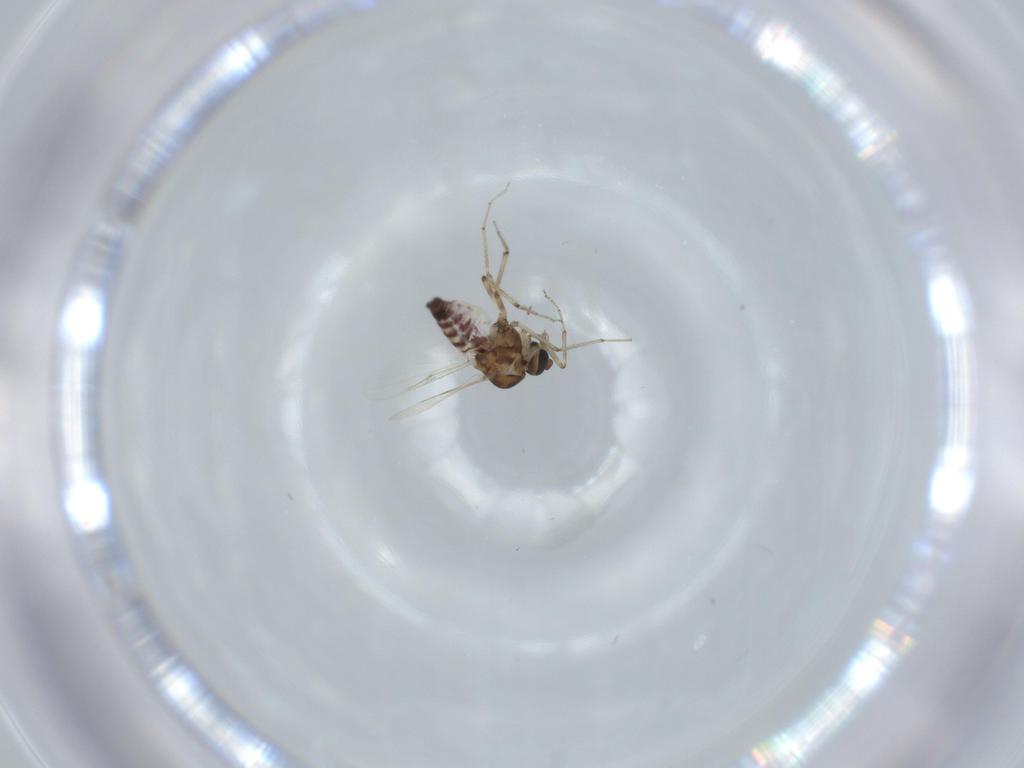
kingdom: Animalia
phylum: Arthropoda
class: Insecta
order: Diptera
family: Ceratopogonidae
